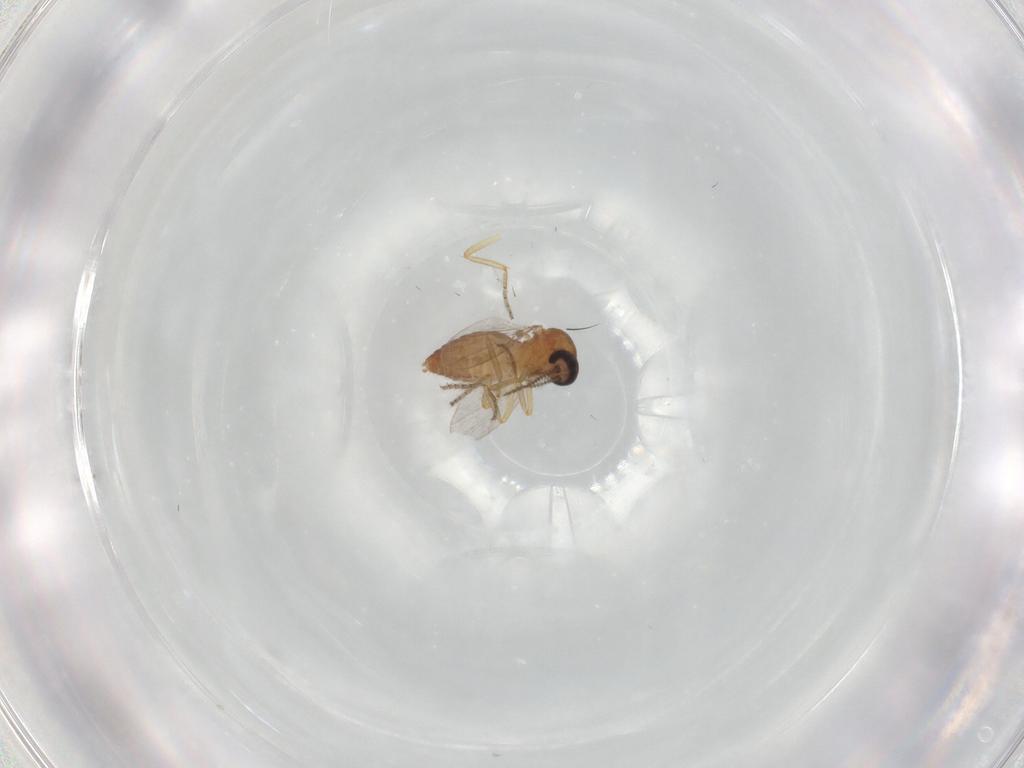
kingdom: Animalia
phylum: Arthropoda
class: Insecta
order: Diptera
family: Ceratopogonidae
